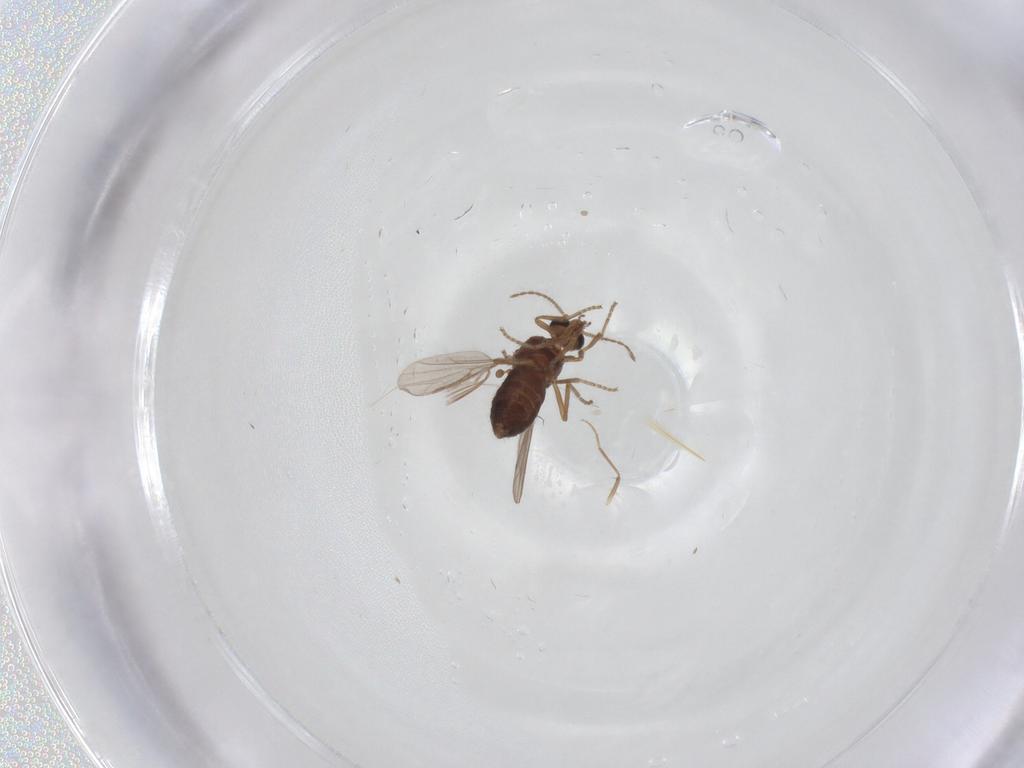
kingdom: Animalia
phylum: Arthropoda
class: Insecta
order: Diptera
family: Ceratopogonidae
